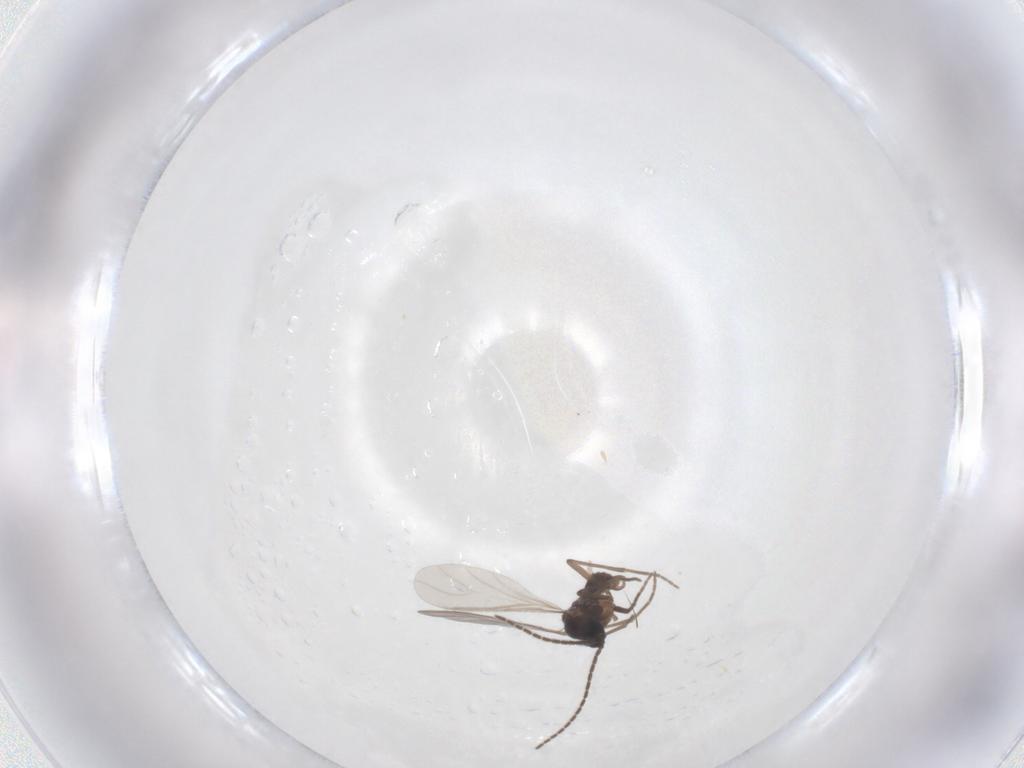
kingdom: Animalia
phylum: Arthropoda
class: Insecta
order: Diptera
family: Sciaridae
